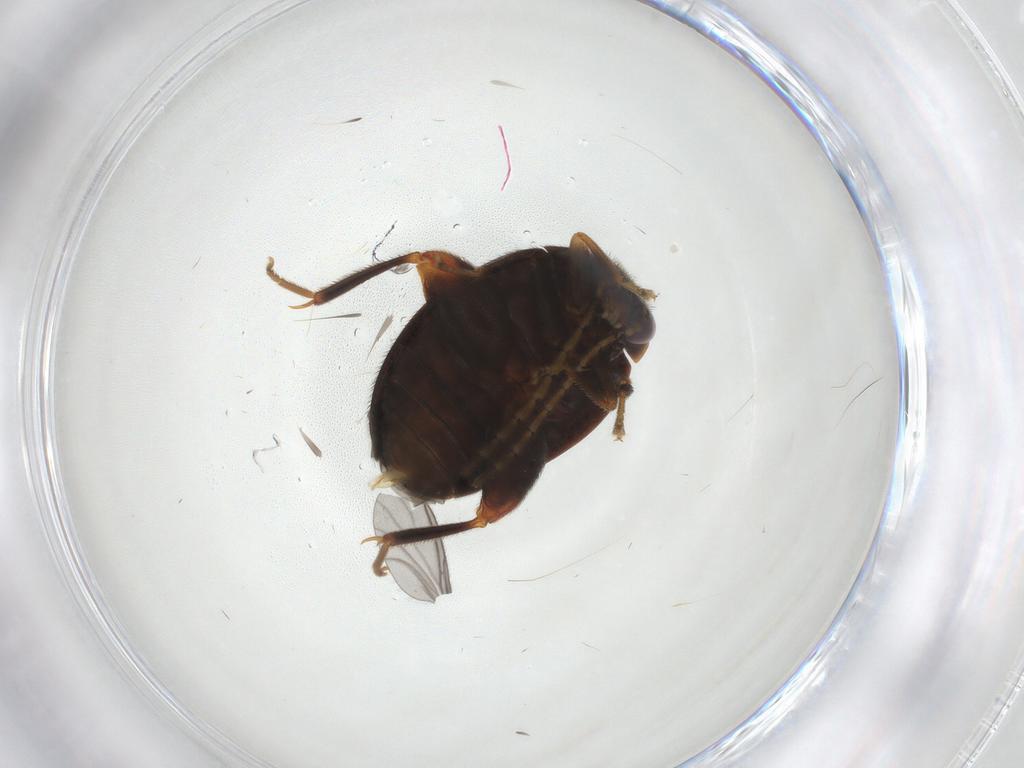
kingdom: Animalia
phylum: Arthropoda
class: Insecta
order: Coleoptera
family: Scirtidae
